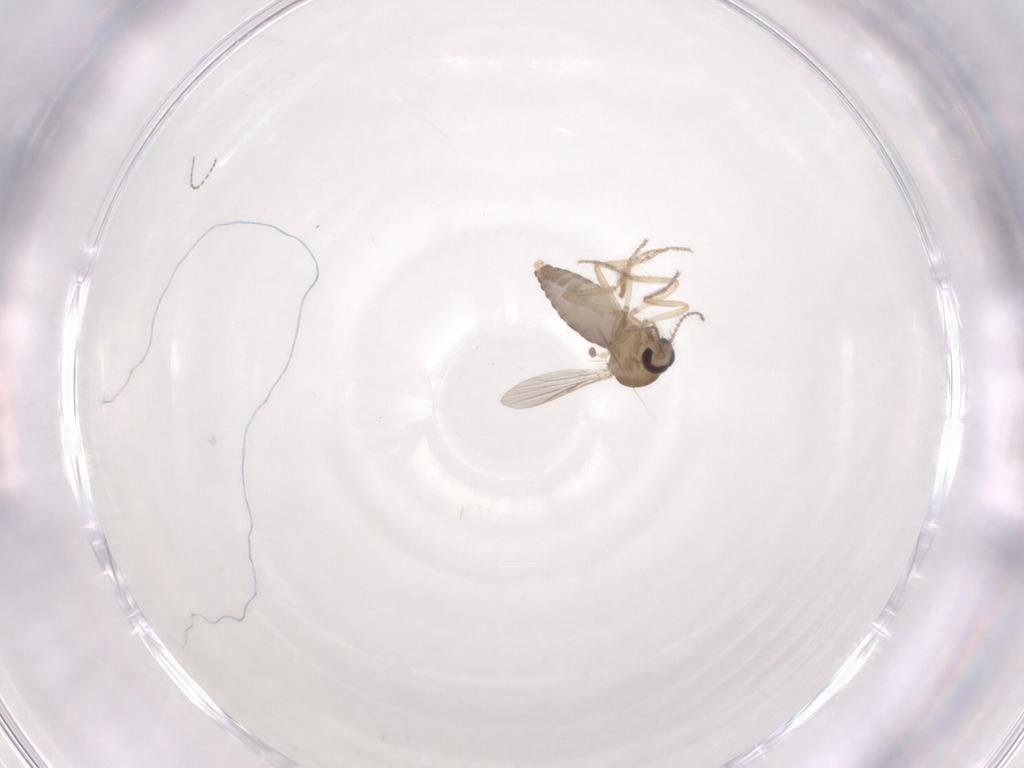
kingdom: Animalia
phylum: Arthropoda
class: Insecta
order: Diptera
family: Ceratopogonidae
